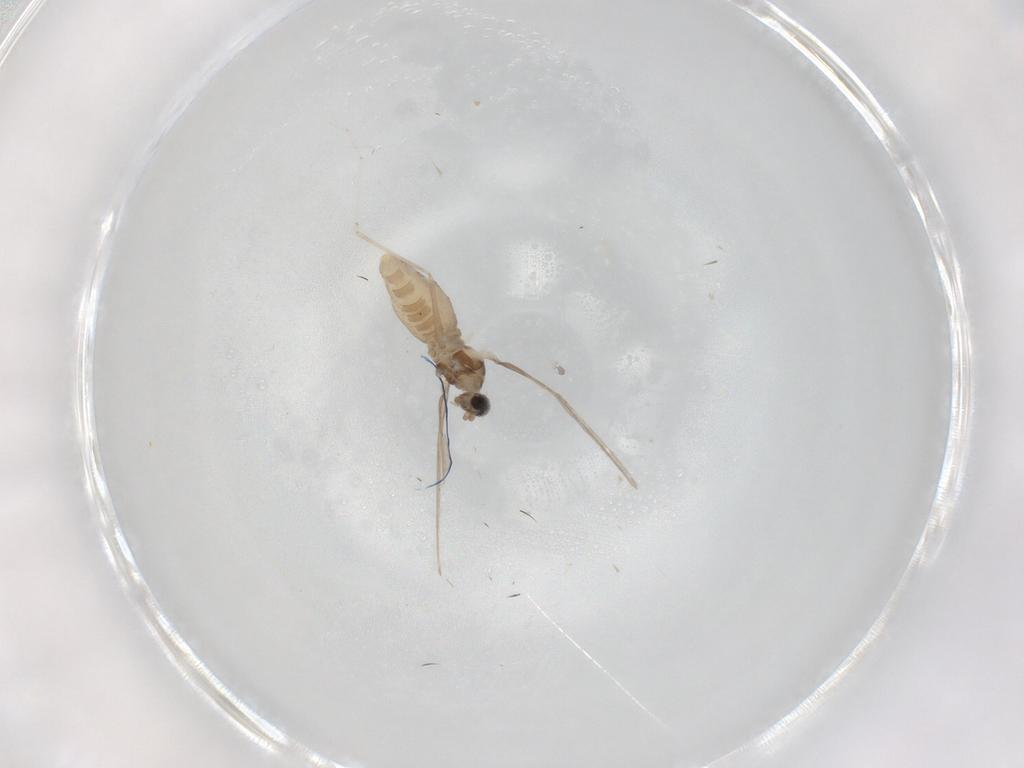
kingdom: Animalia
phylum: Arthropoda
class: Insecta
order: Diptera
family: Cecidomyiidae
